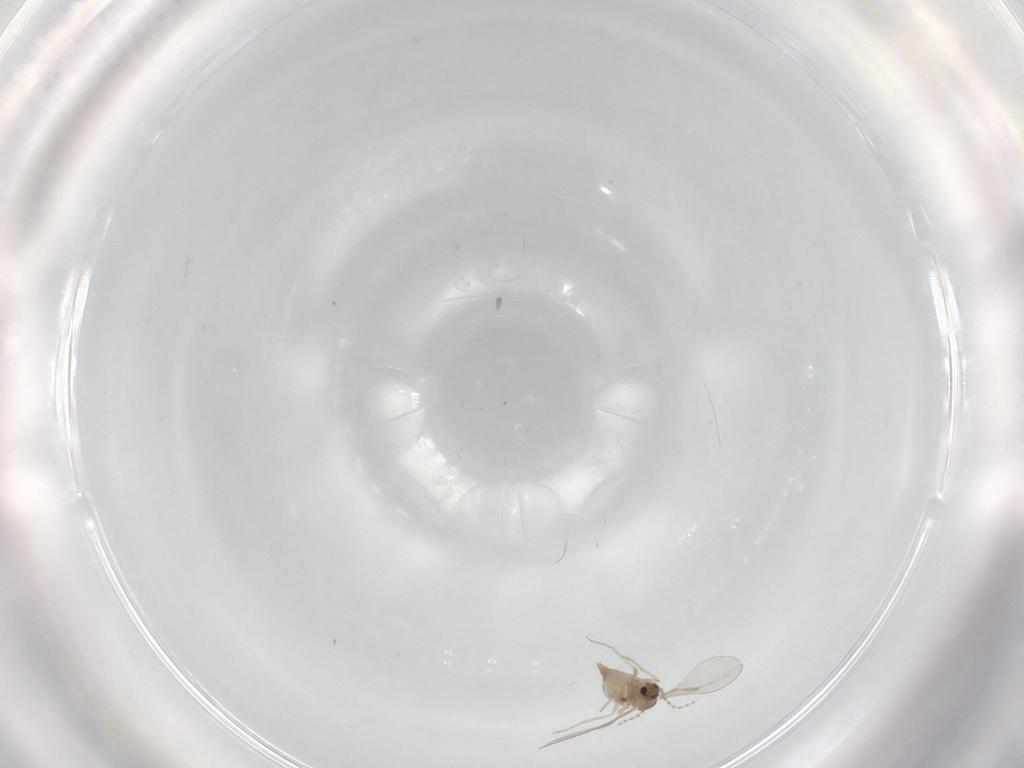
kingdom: Animalia
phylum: Arthropoda
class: Insecta
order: Diptera
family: Cecidomyiidae
